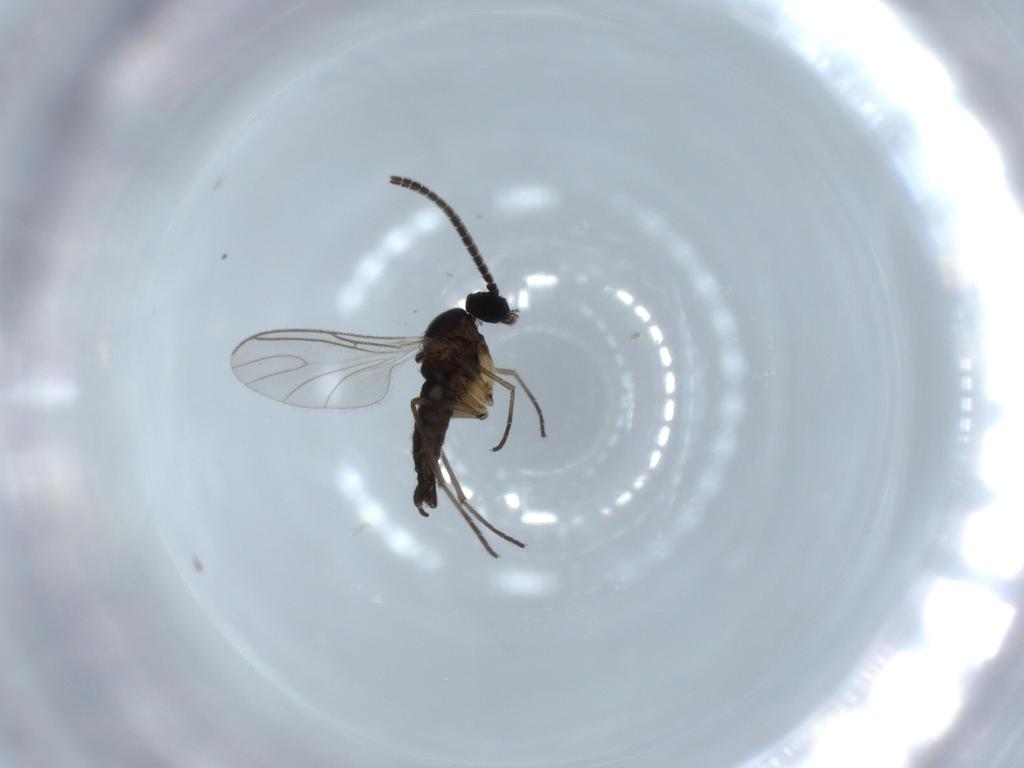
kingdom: Animalia
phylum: Arthropoda
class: Insecta
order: Diptera
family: Sciaridae
